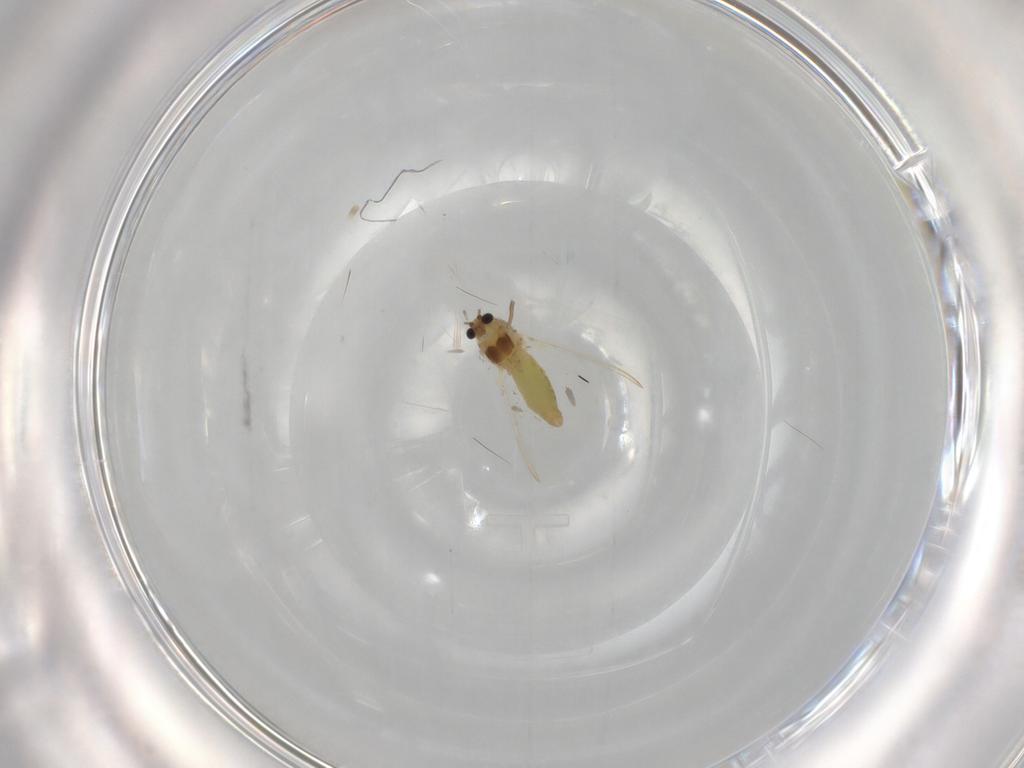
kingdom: Animalia
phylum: Arthropoda
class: Insecta
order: Diptera
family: Chironomidae
